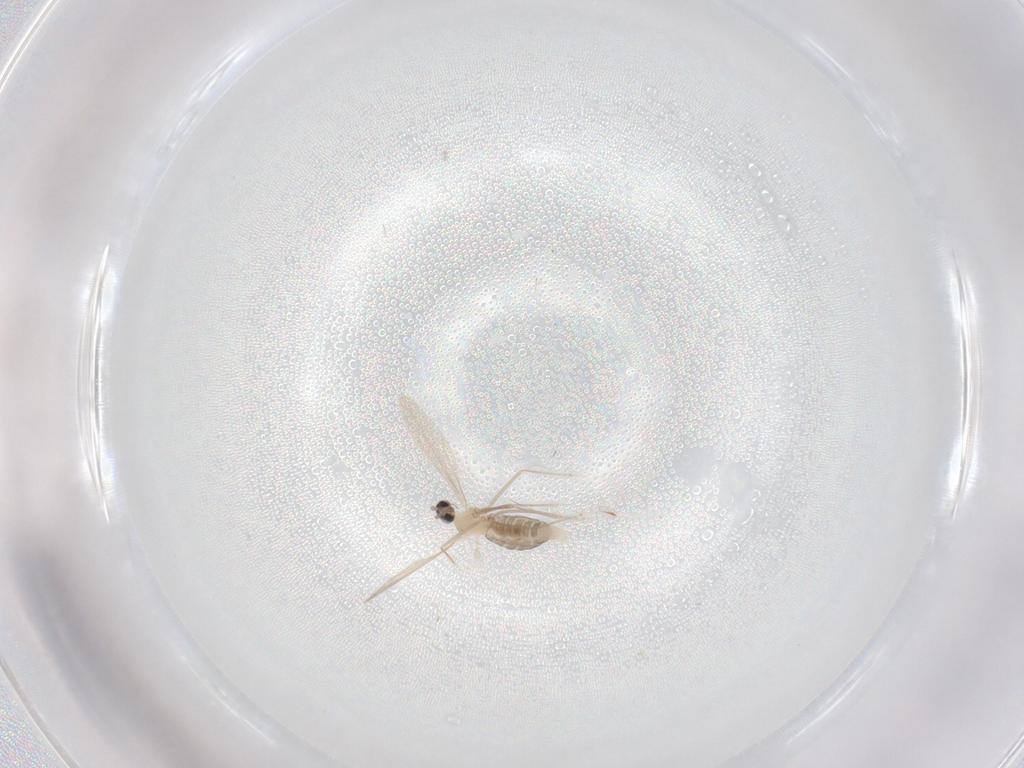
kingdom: Animalia
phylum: Arthropoda
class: Insecta
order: Diptera
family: Cecidomyiidae
